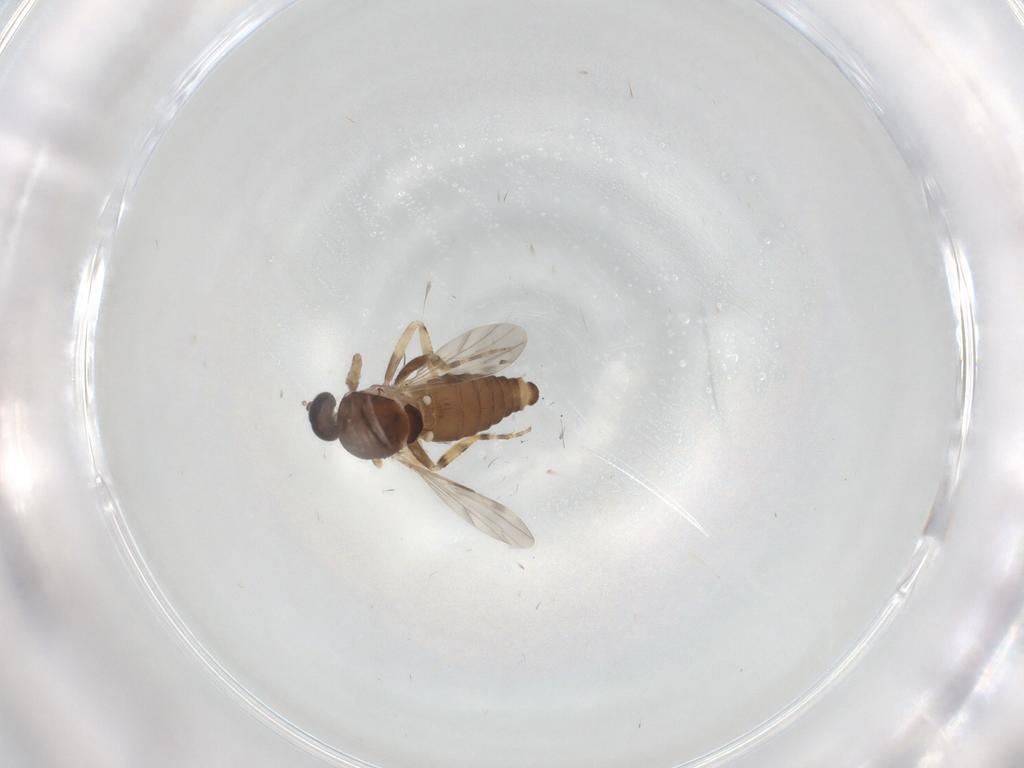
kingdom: Animalia
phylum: Arthropoda
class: Insecta
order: Diptera
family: Ceratopogonidae
